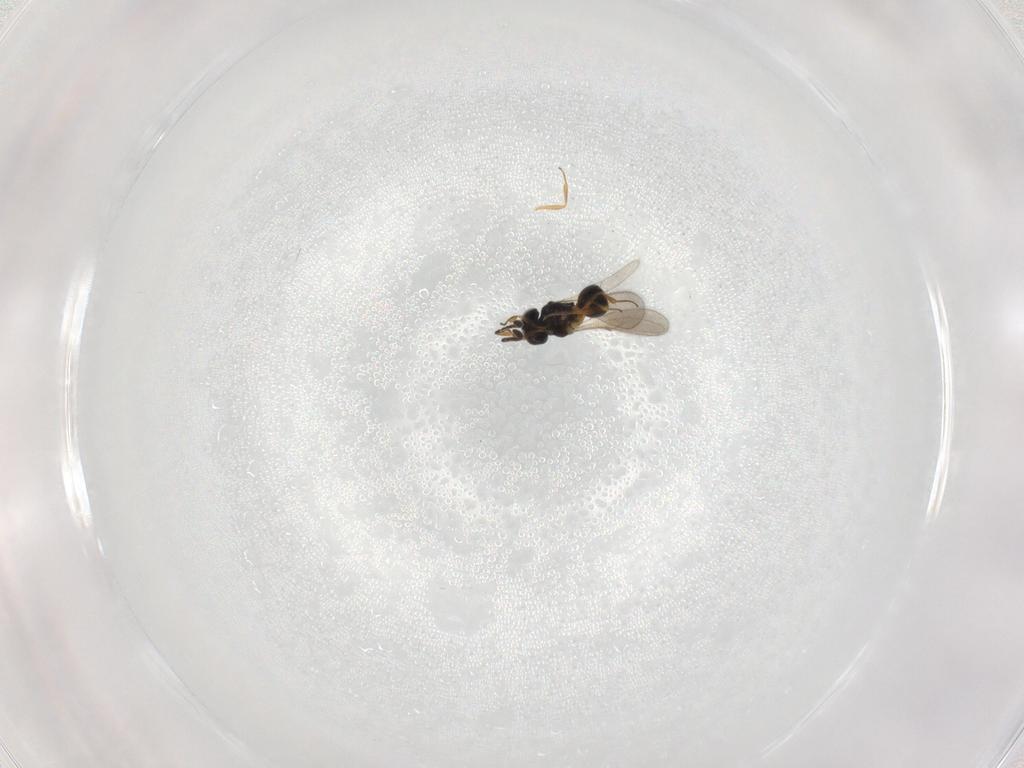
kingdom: Animalia
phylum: Arthropoda
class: Insecta
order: Hymenoptera
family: Scelionidae
